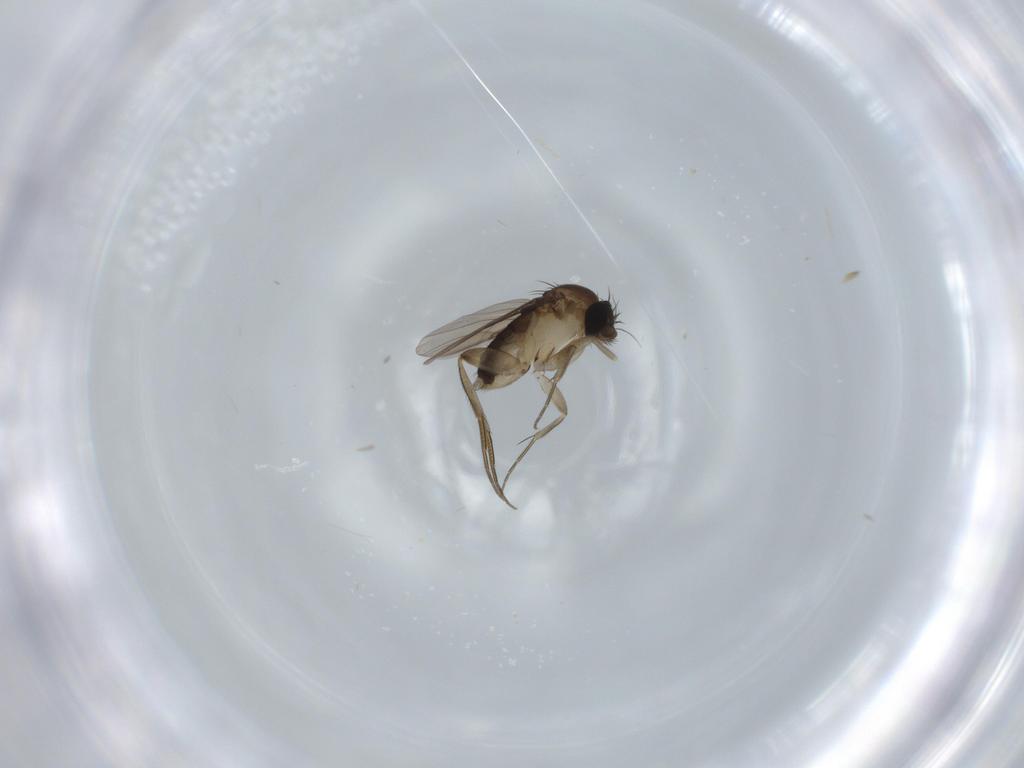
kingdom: Animalia
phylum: Arthropoda
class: Insecta
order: Diptera
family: Phoridae
